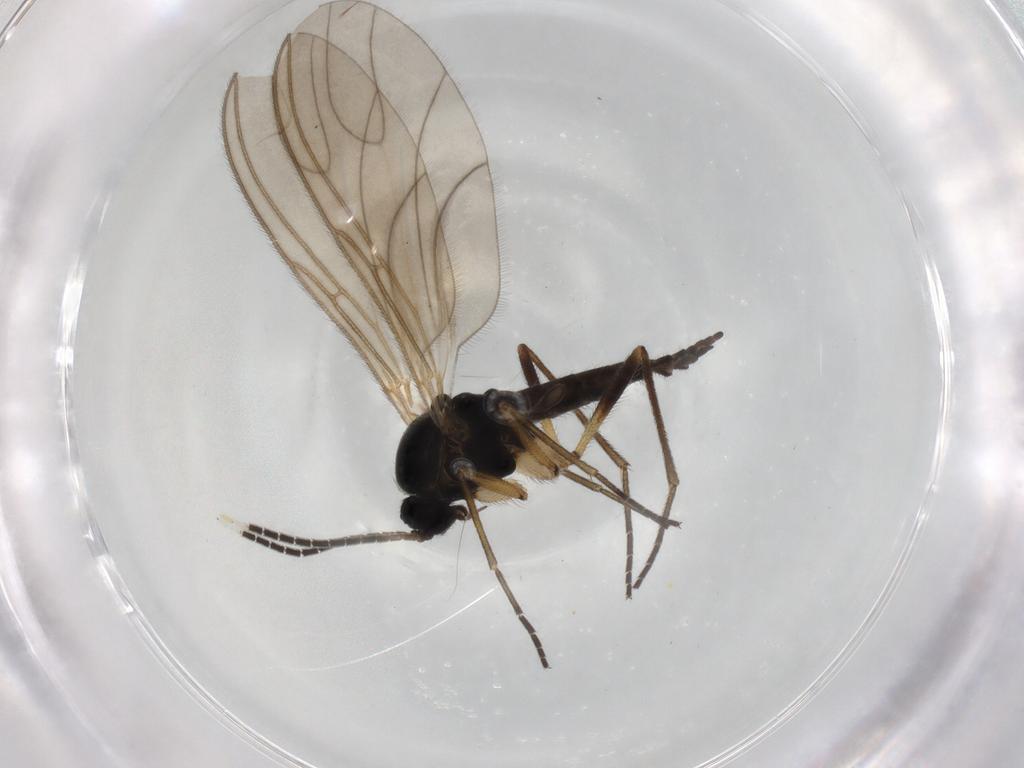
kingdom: Animalia
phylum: Arthropoda
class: Insecta
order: Diptera
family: Sciaridae
